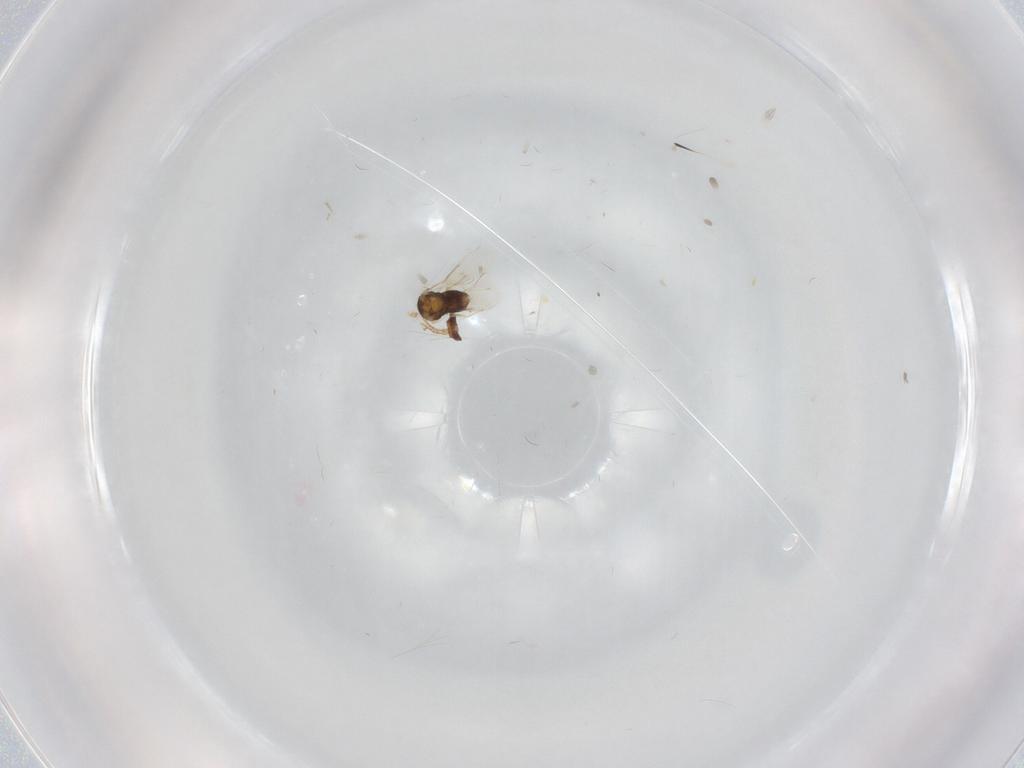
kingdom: Animalia
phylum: Arthropoda
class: Insecta
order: Hymenoptera
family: Aphelinidae
